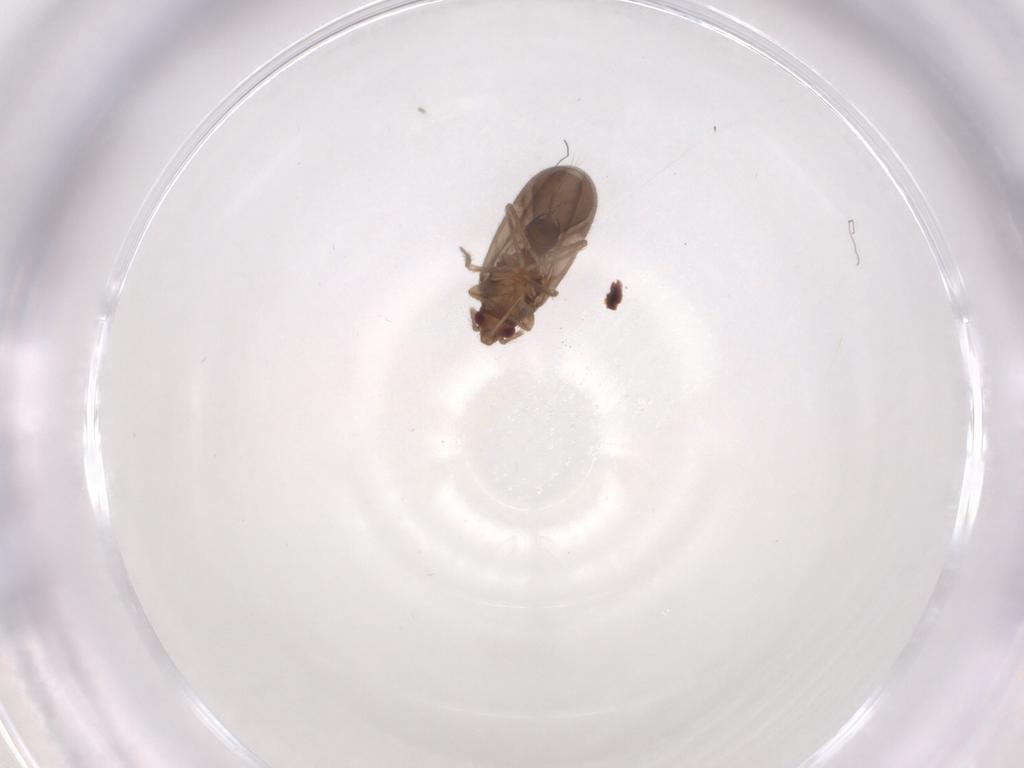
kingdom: Animalia
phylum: Arthropoda
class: Insecta
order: Hemiptera
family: Ceratocombidae
